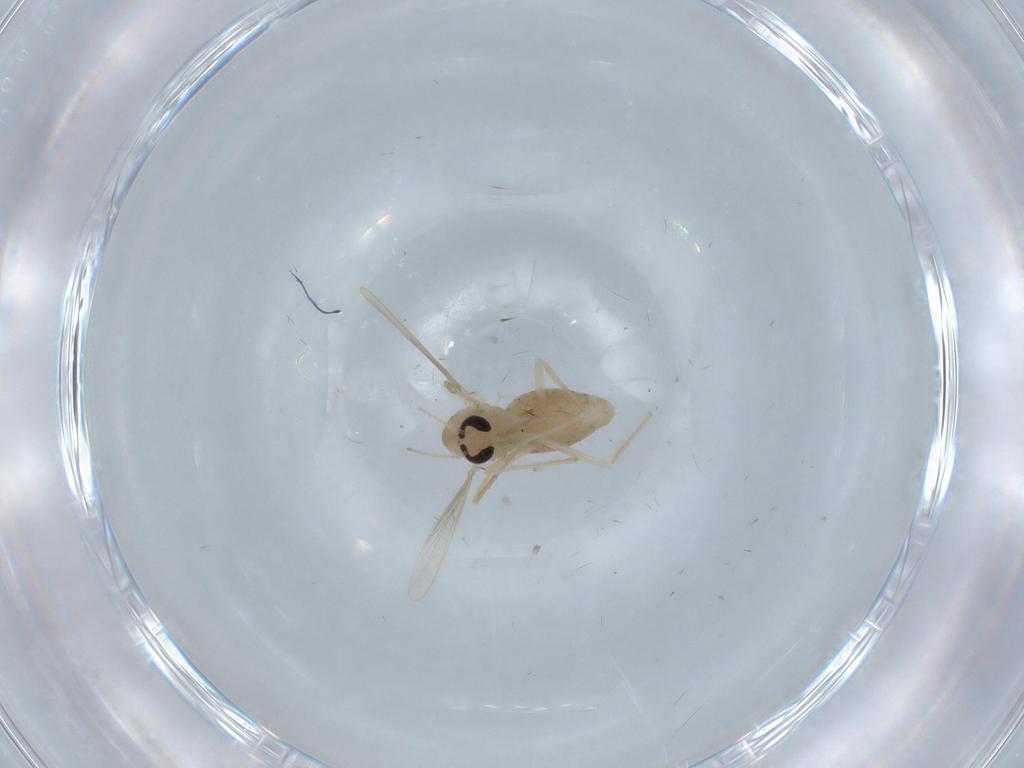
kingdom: Animalia
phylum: Arthropoda
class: Insecta
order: Diptera
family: Chironomidae
